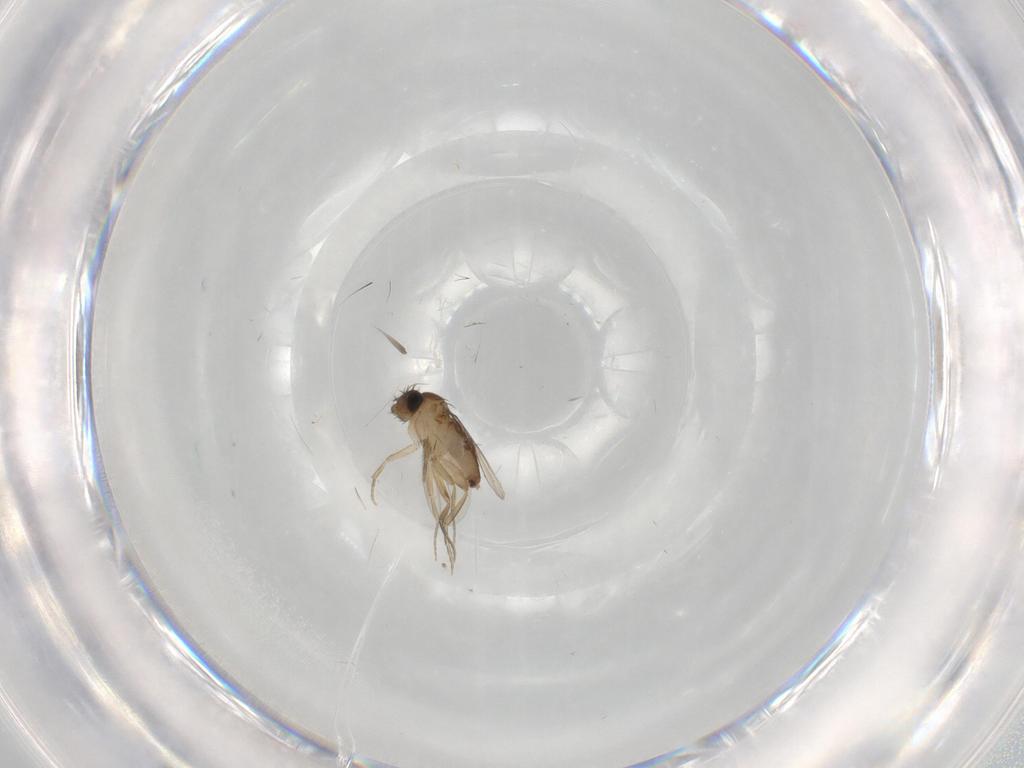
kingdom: Animalia
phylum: Arthropoda
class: Insecta
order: Diptera
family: Phoridae
